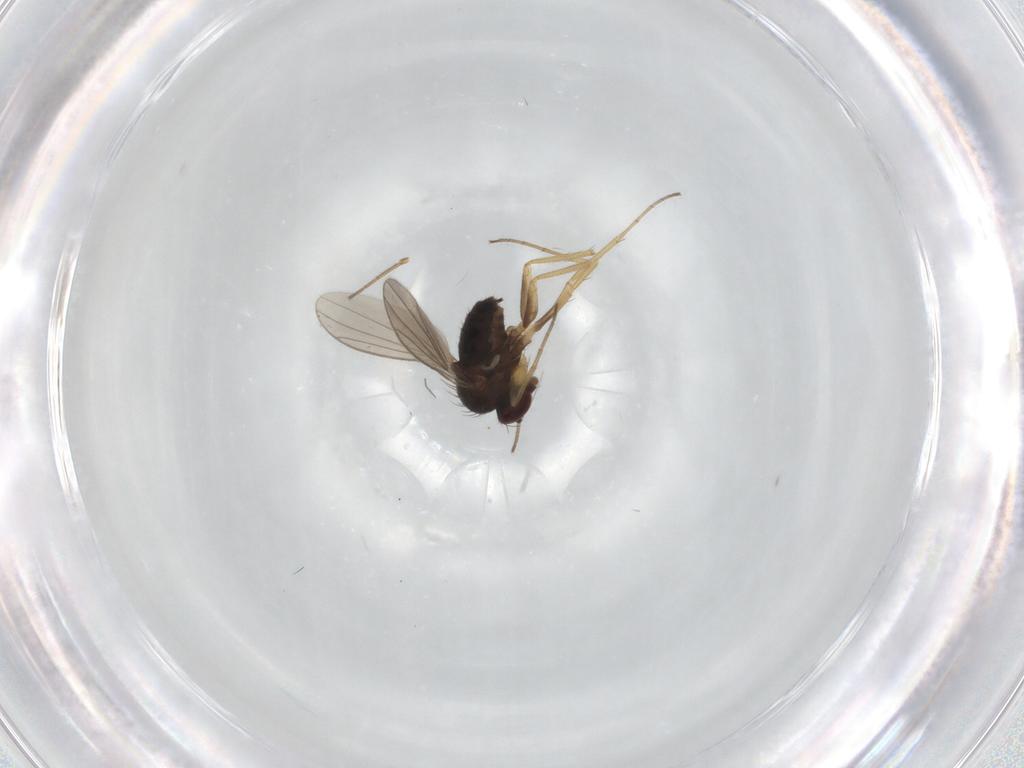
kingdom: Animalia
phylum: Arthropoda
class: Insecta
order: Diptera
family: Dolichopodidae
